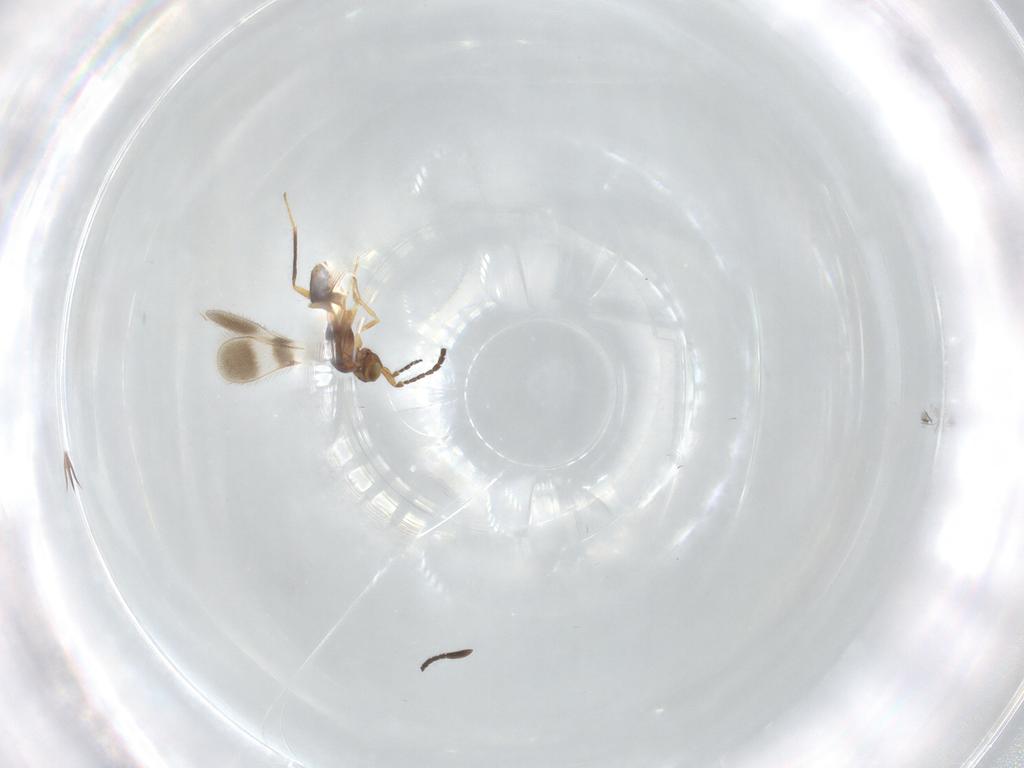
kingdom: Animalia
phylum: Arthropoda
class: Insecta
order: Hymenoptera
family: Mymaridae
